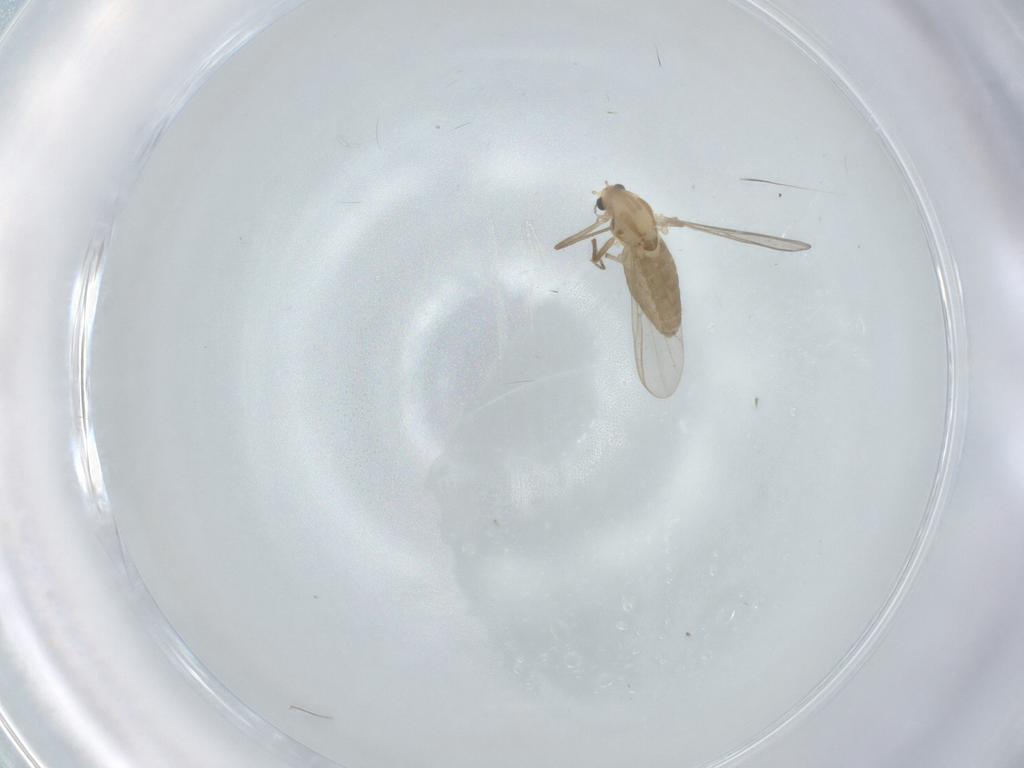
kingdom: Animalia
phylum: Arthropoda
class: Insecta
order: Diptera
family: Chironomidae
